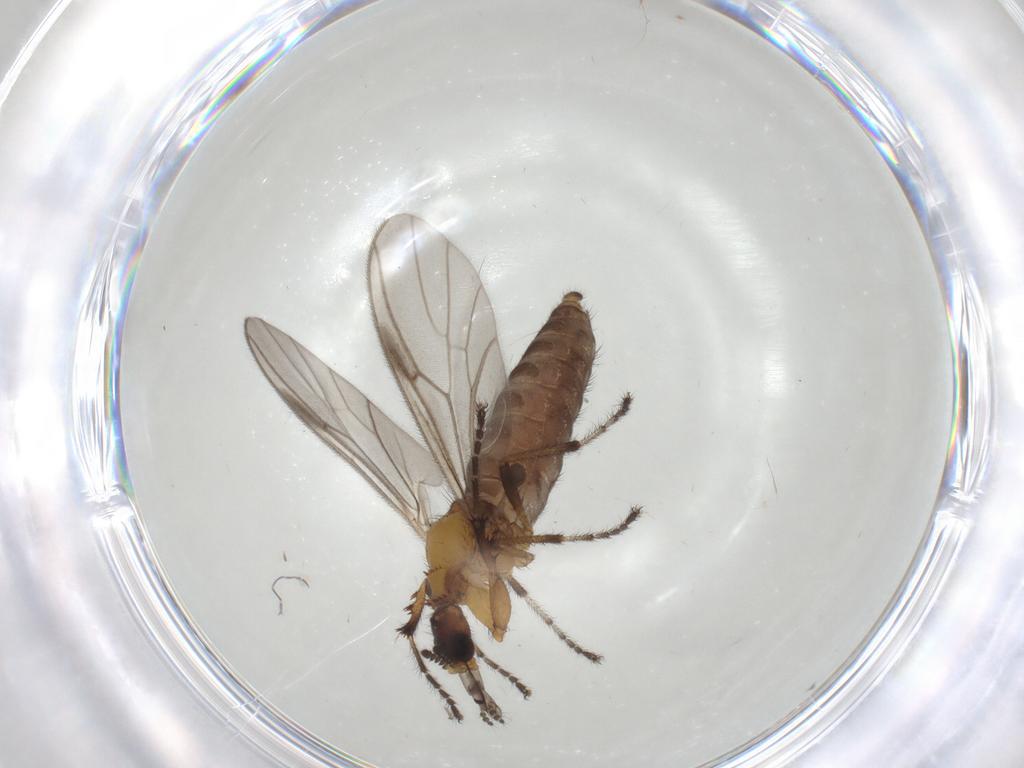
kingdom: Animalia
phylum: Arthropoda
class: Insecta
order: Diptera
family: Bibionidae
